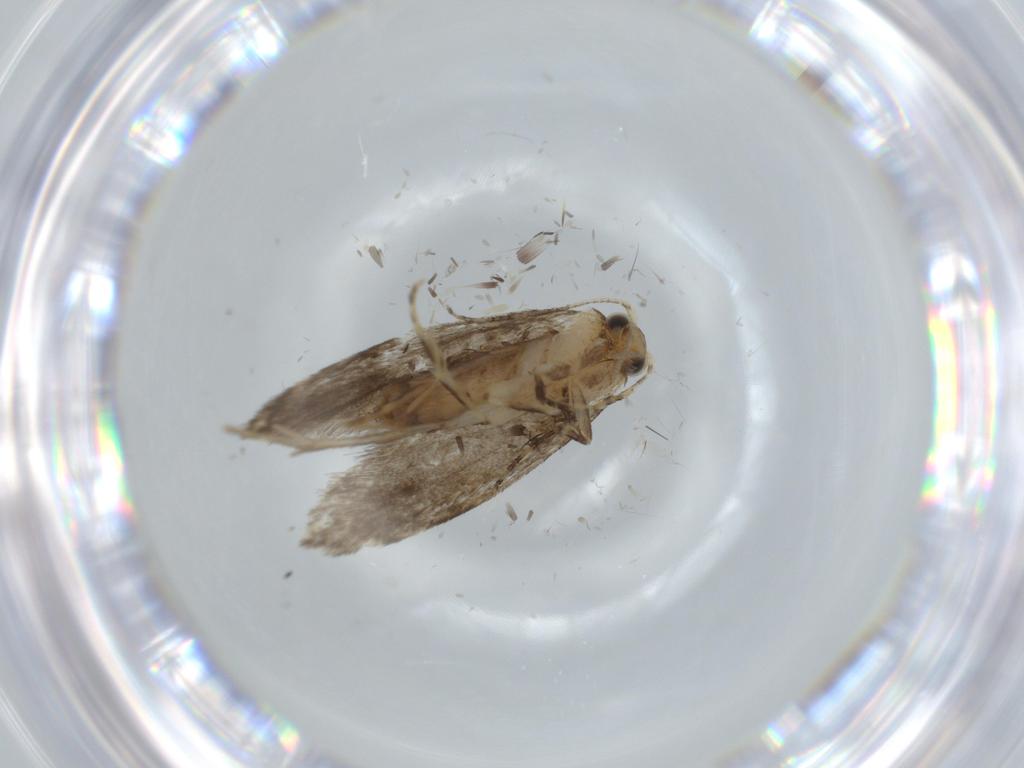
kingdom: Animalia
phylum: Arthropoda
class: Insecta
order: Lepidoptera
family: Tineidae
